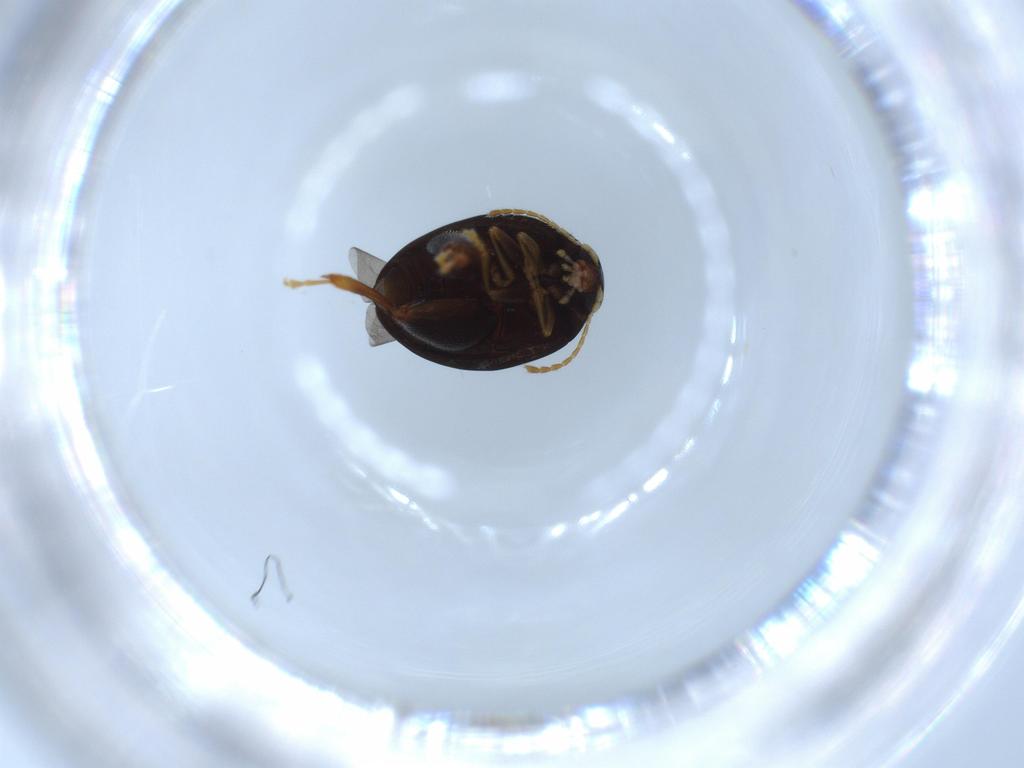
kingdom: Animalia
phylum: Arthropoda
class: Insecta
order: Coleoptera
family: Chrysomelidae
